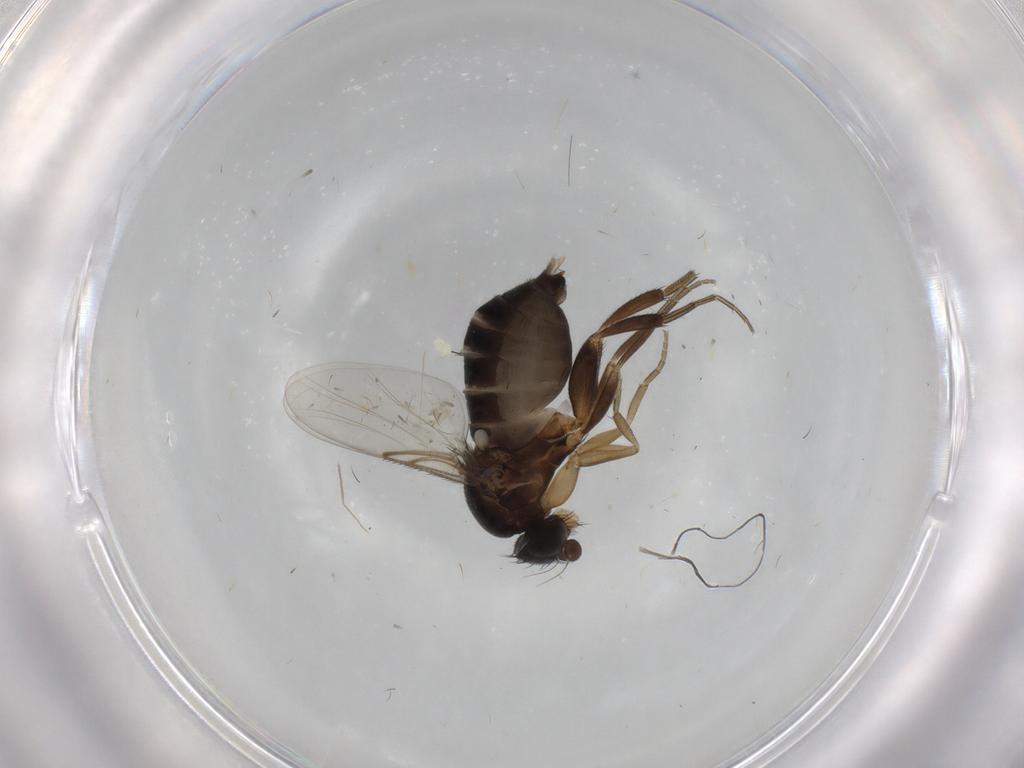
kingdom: Animalia
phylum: Arthropoda
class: Insecta
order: Diptera
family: Phoridae
